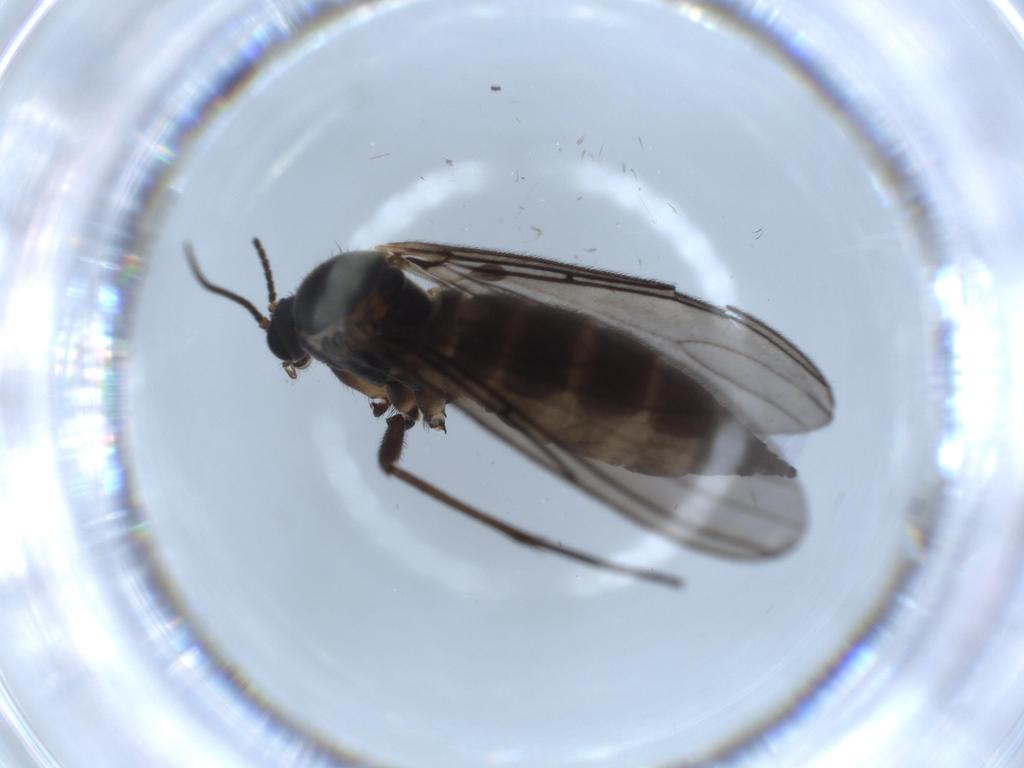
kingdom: Animalia
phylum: Arthropoda
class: Insecta
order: Diptera
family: Sciaridae
